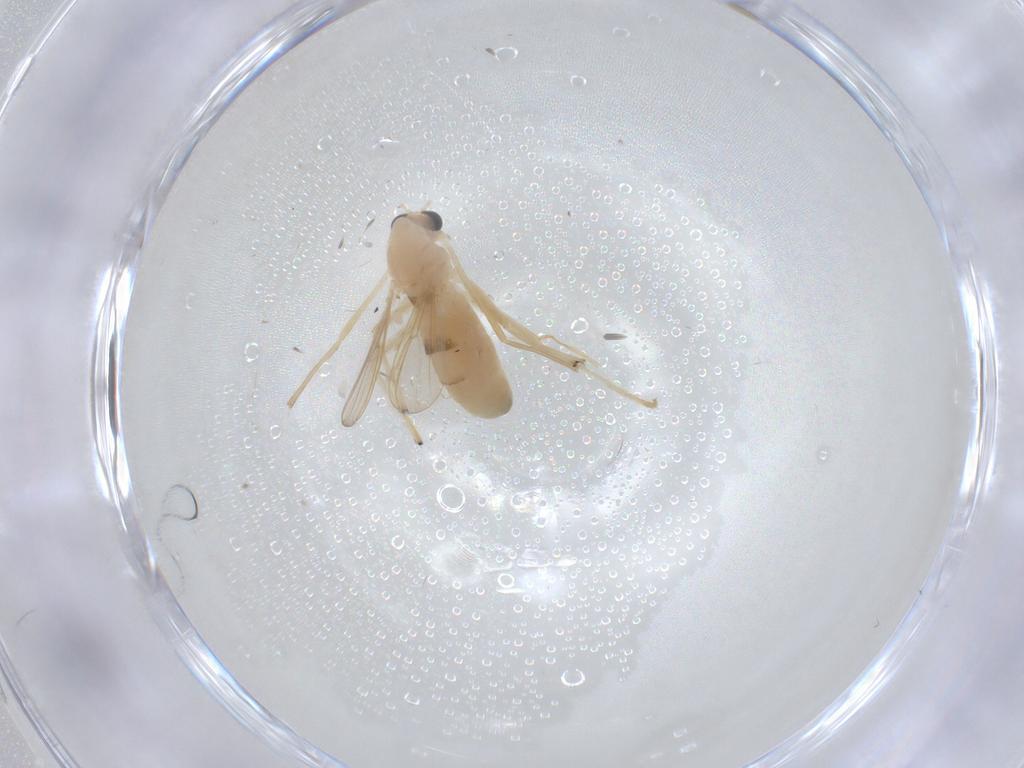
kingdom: Animalia
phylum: Arthropoda
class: Insecta
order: Diptera
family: Chironomidae
